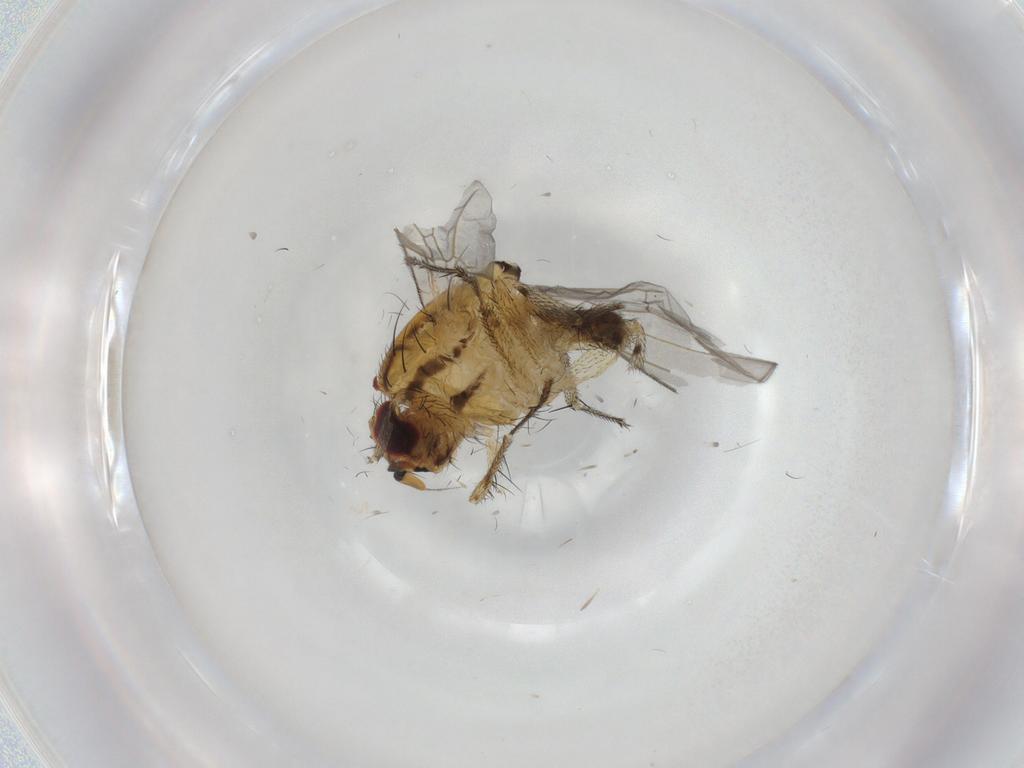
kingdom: Animalia
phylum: Arthropoda
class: Insecta
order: Diptera
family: Lauxaniidae
